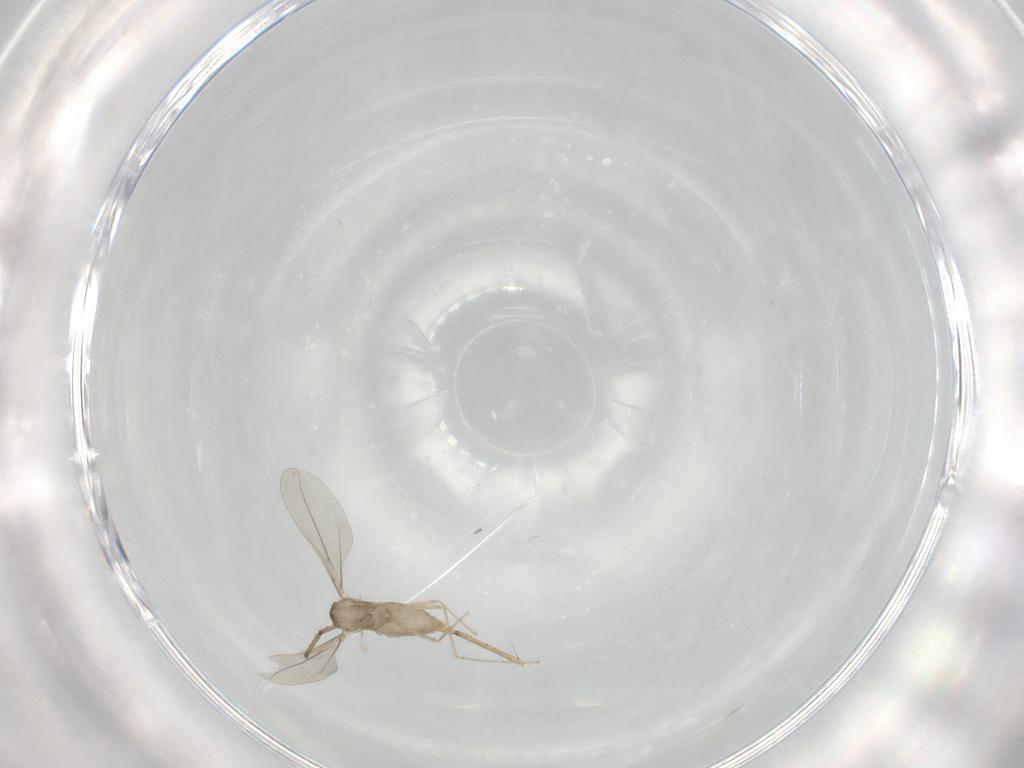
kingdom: Animalia
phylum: Arthropoda
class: Insecta
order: Diptera
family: Cecidomyiidae
